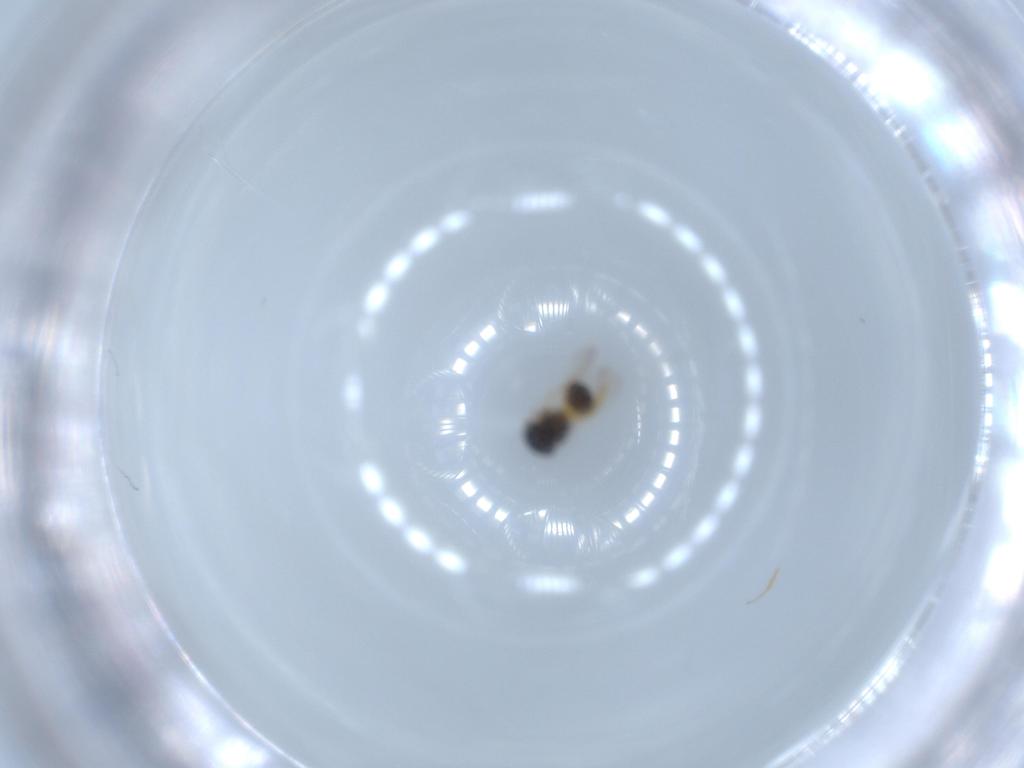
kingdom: Animalia
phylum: Arthropoda
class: Insecta
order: Hymenoptera
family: Scelionidae
